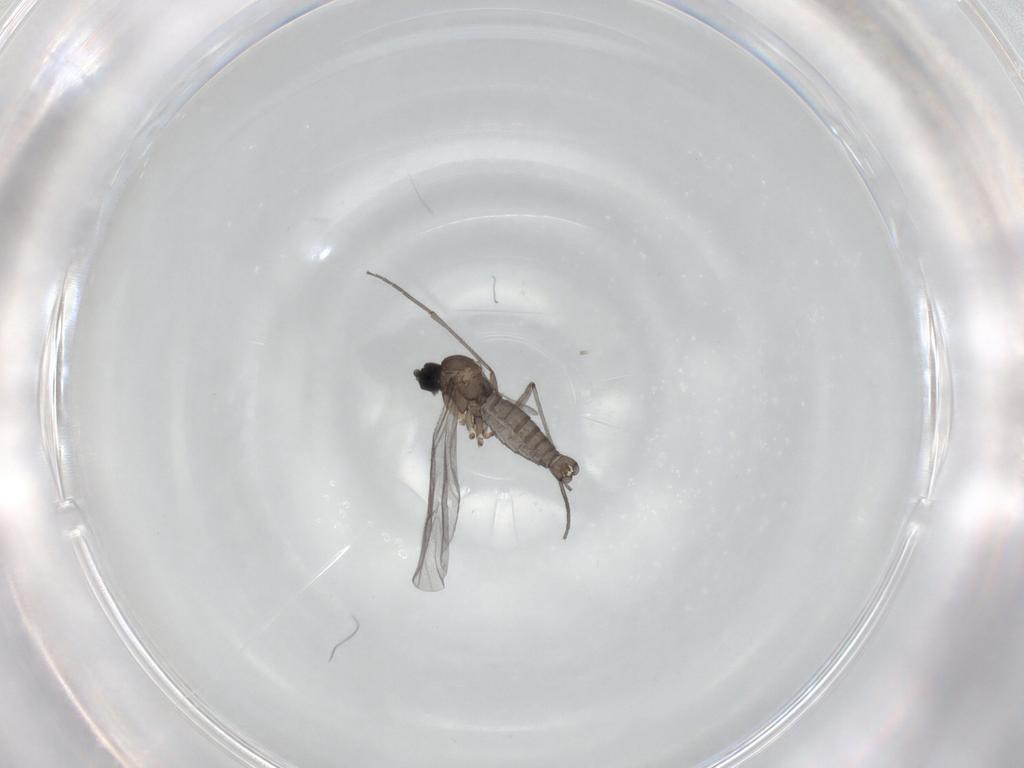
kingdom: Animalia
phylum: Arthropoda
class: Insecta
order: Diptera
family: Sciaridae
